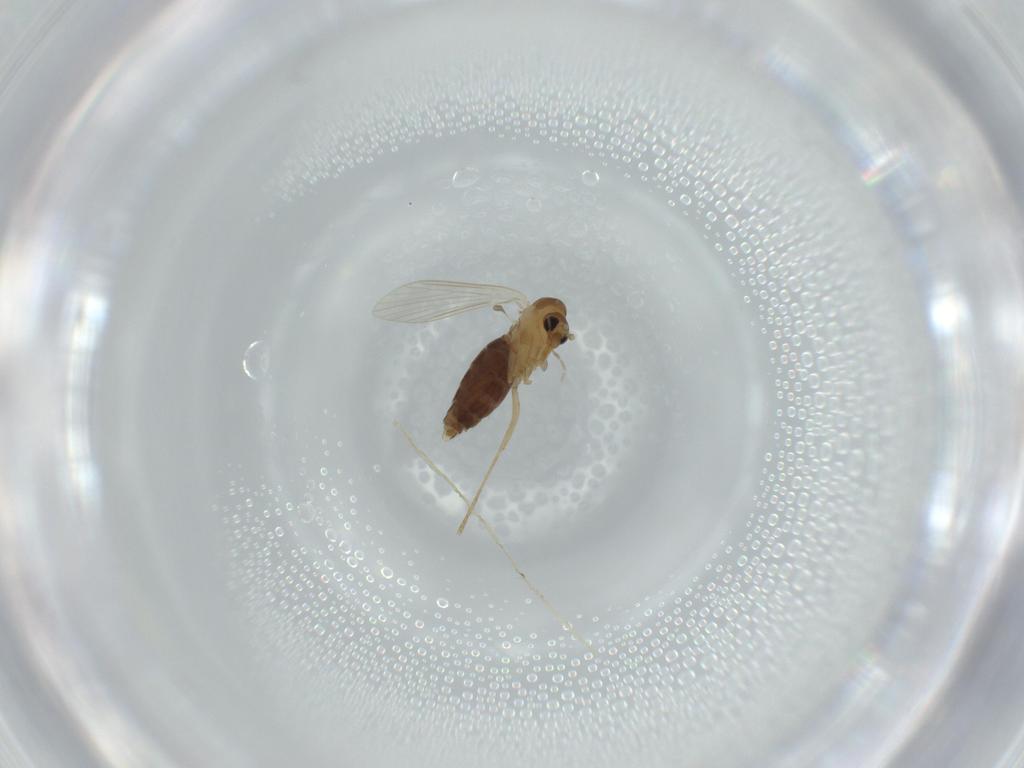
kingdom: Animalia
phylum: Arthropoda
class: Insecta
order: Diptera
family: Psychodidae
